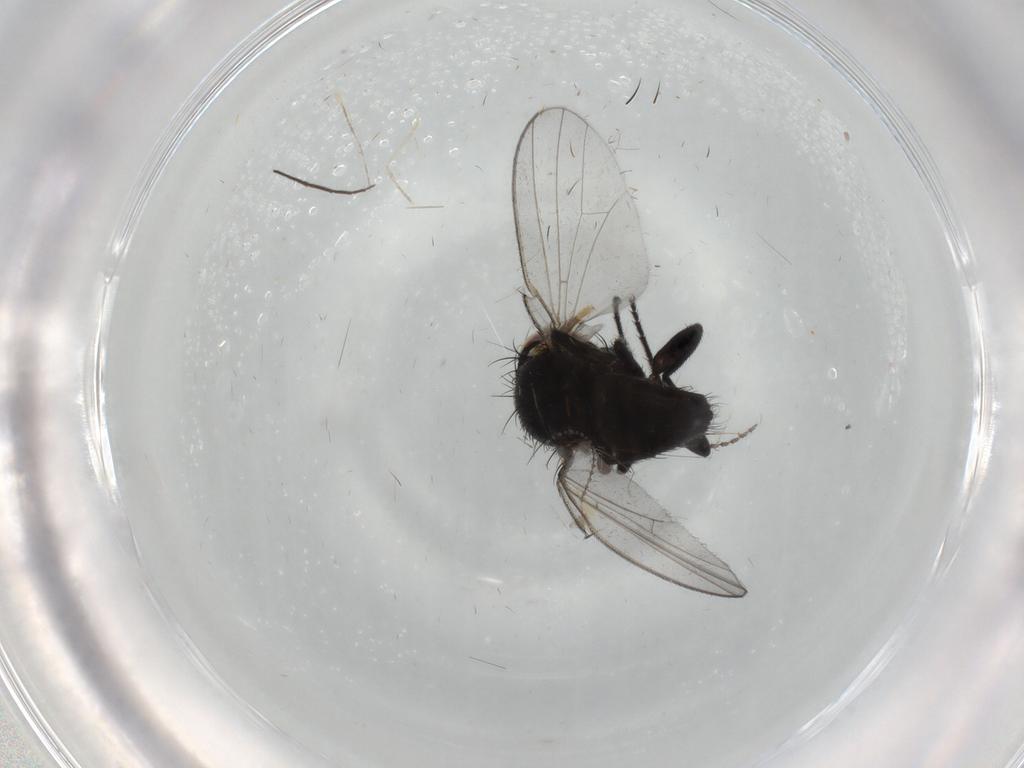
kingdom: Animalia
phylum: Arthropoda
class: Insecta
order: Diptera
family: Milichiidae
